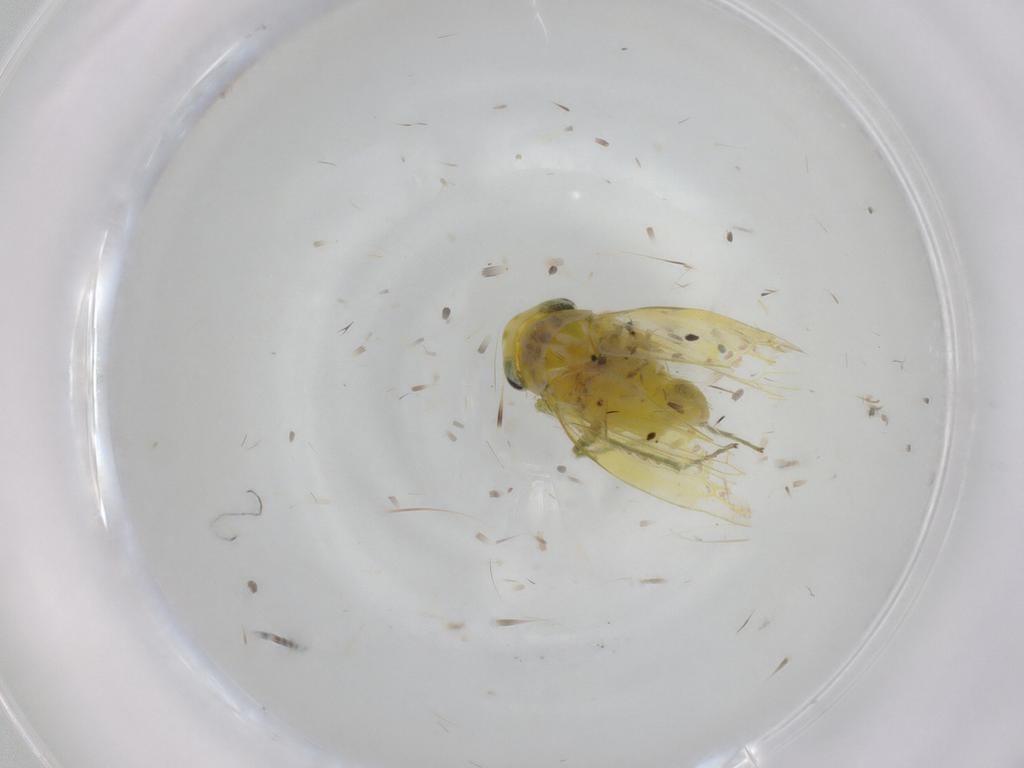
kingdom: Animalia
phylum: Arthropoda
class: Insecta
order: Hemiptera
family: Cicadellidae
